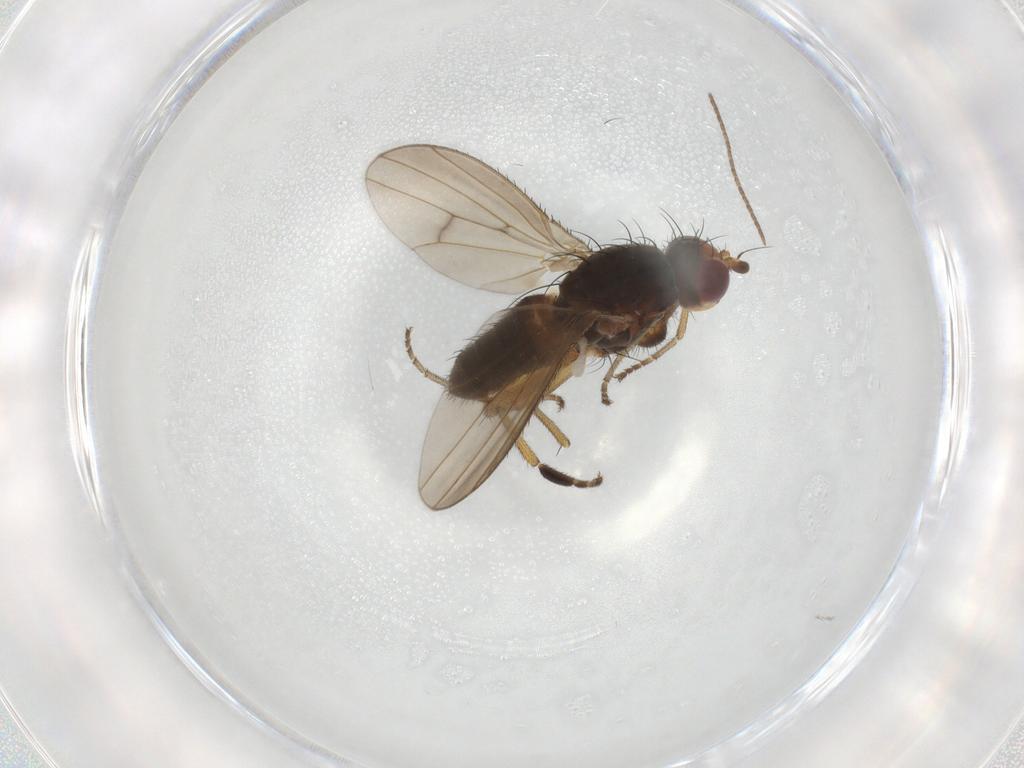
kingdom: Animalia
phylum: Arthropoda
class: Insecta
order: Diptera
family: Heleomyzidae
